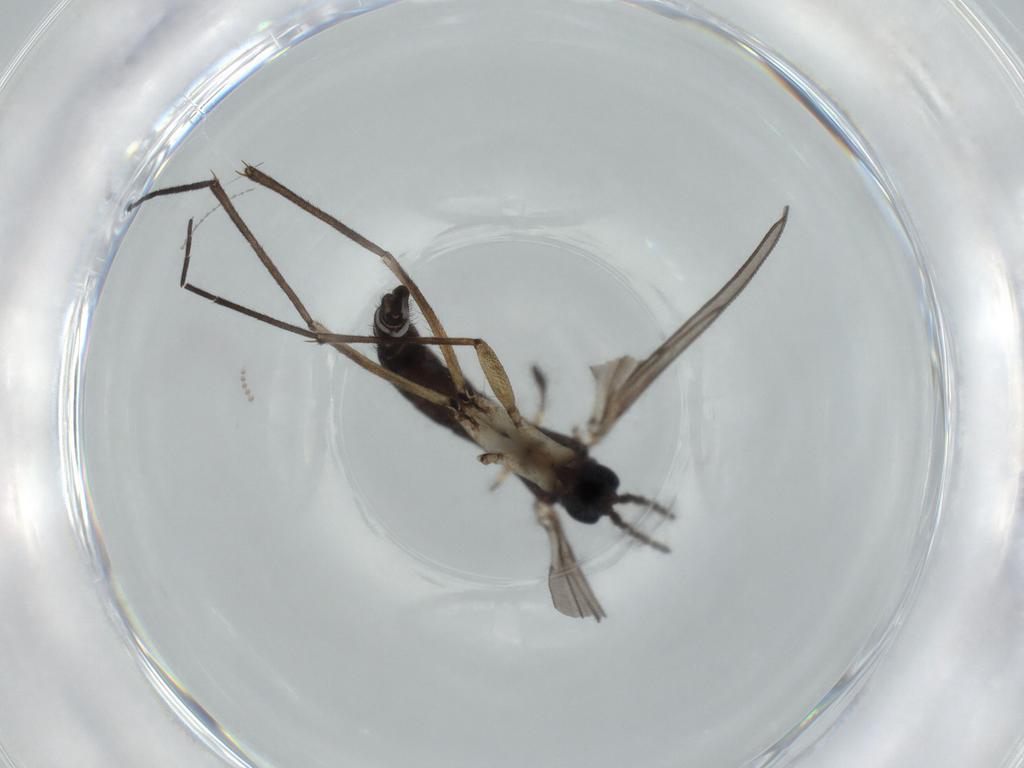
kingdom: Animalia
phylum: Arthropoda
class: Insecta
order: Diptera
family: Sciaridae
